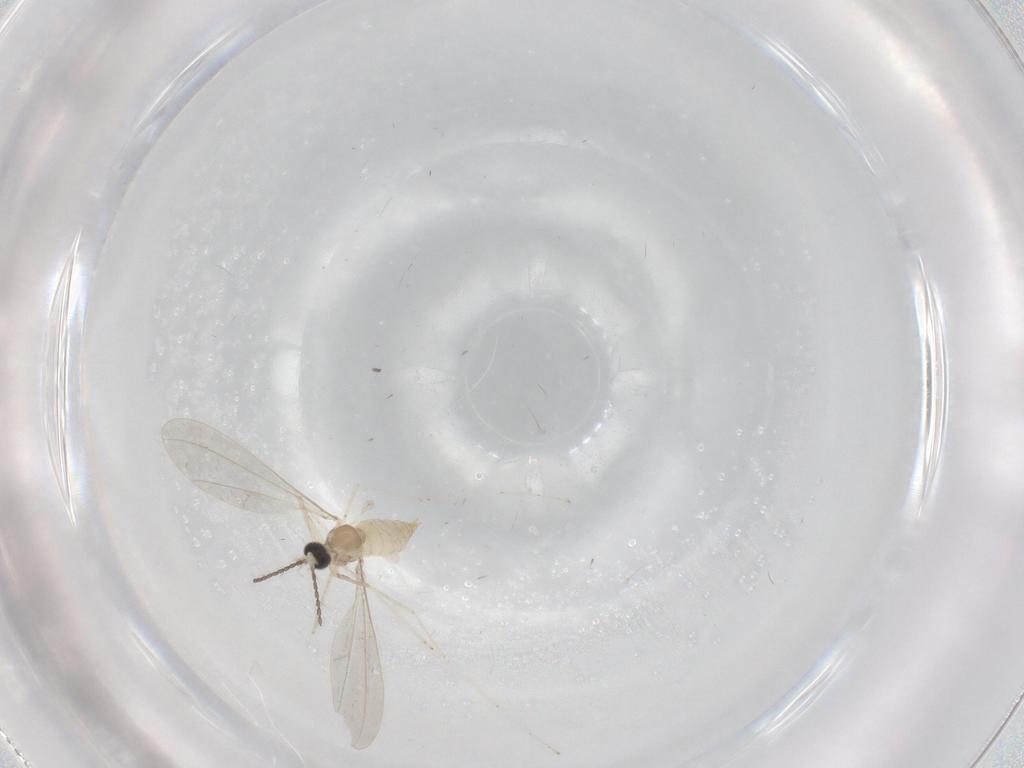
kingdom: Animalia
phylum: Arthropoda
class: Insecta
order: Diptera
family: Cecidomyiidae
